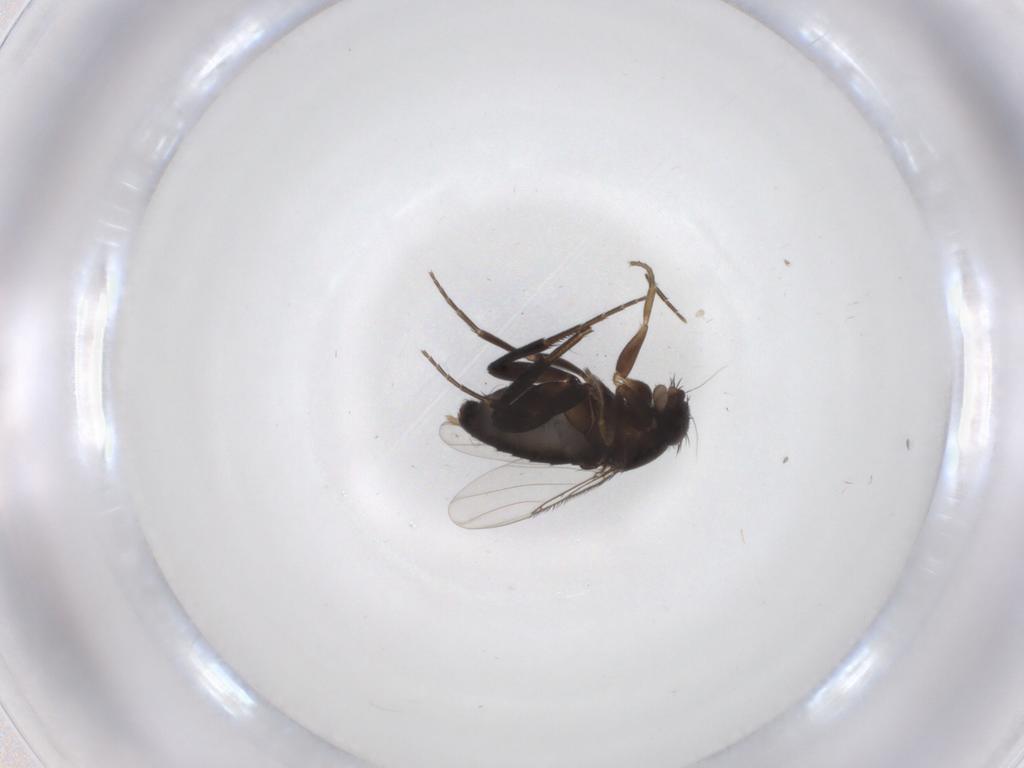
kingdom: Animalia
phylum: Arthropoda
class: Insecta
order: Diptera
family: Phoridae
